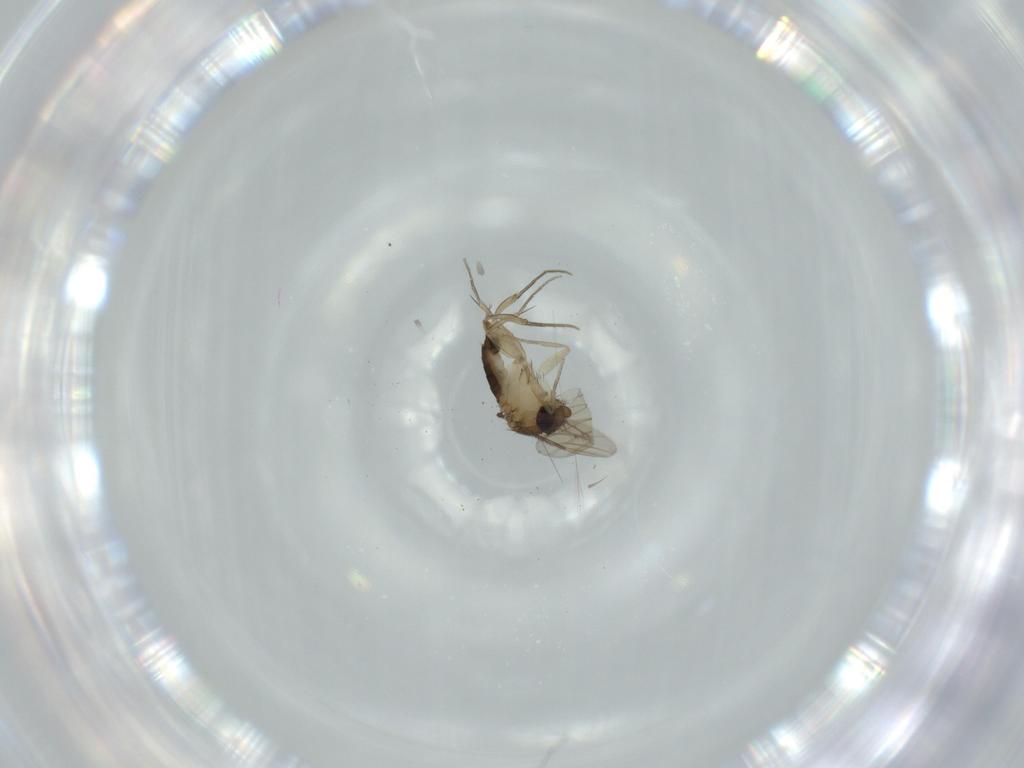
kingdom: Animalia
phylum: Arthropoda
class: Insecta
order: Diptera
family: Phoridae
